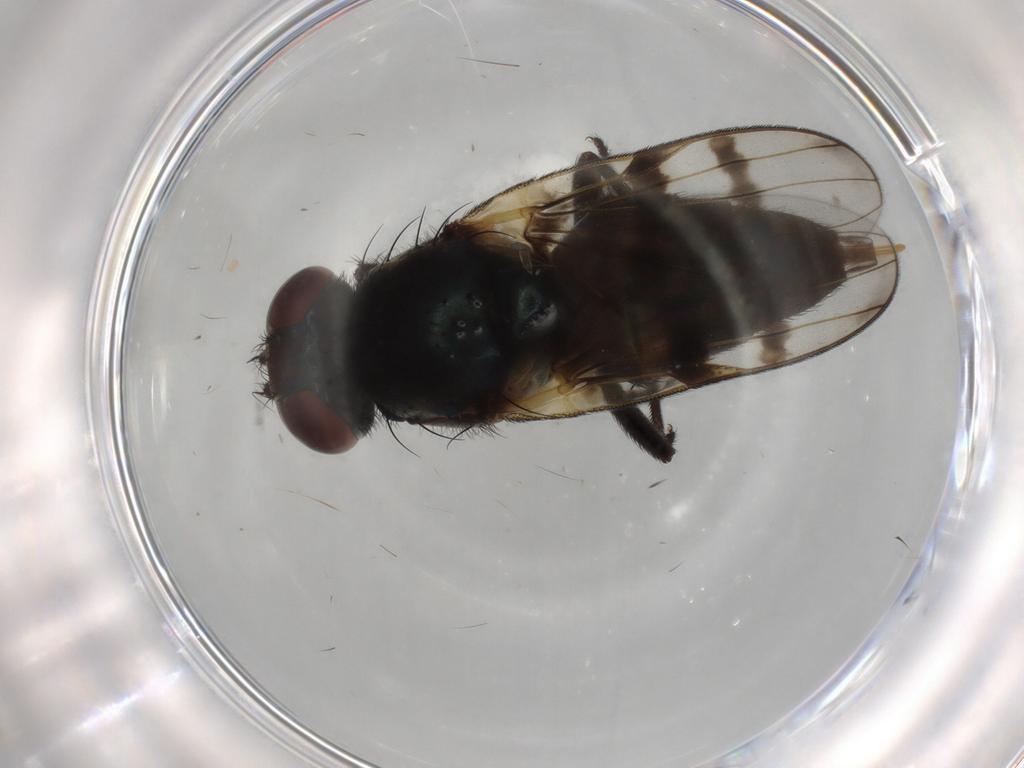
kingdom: Animalia
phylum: Arthropoda
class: Insecta
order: Diptera
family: Ulidiidae
